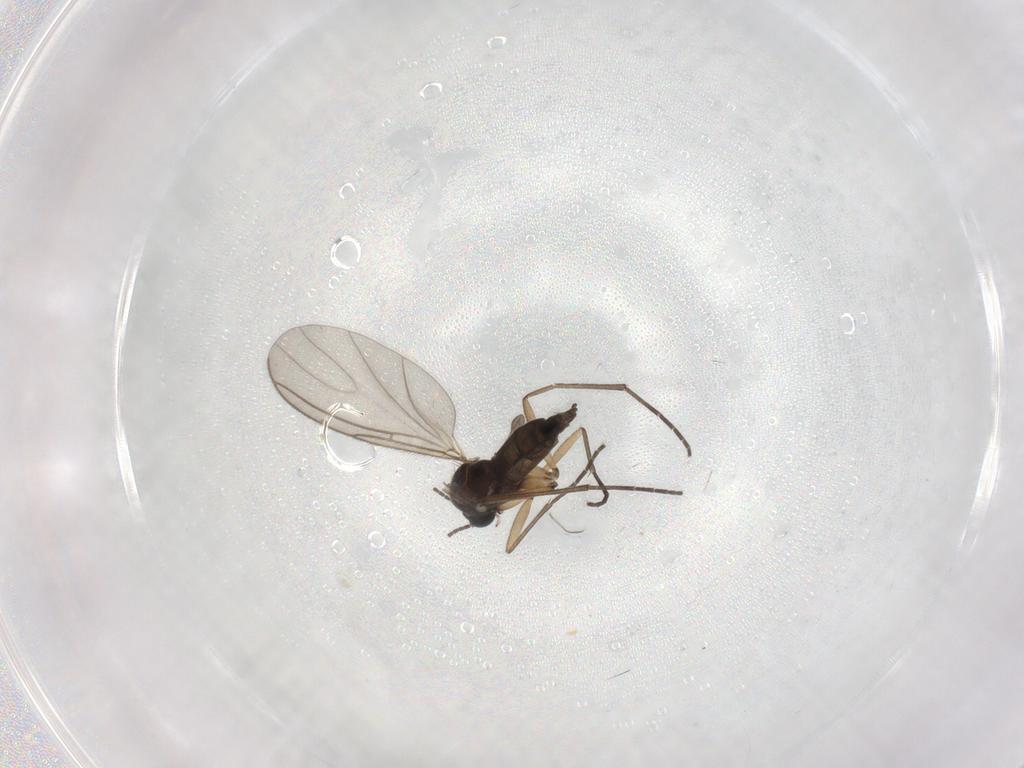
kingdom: Animalia
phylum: Arthropoda
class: Insecta
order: Diptera
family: Sciaridae
